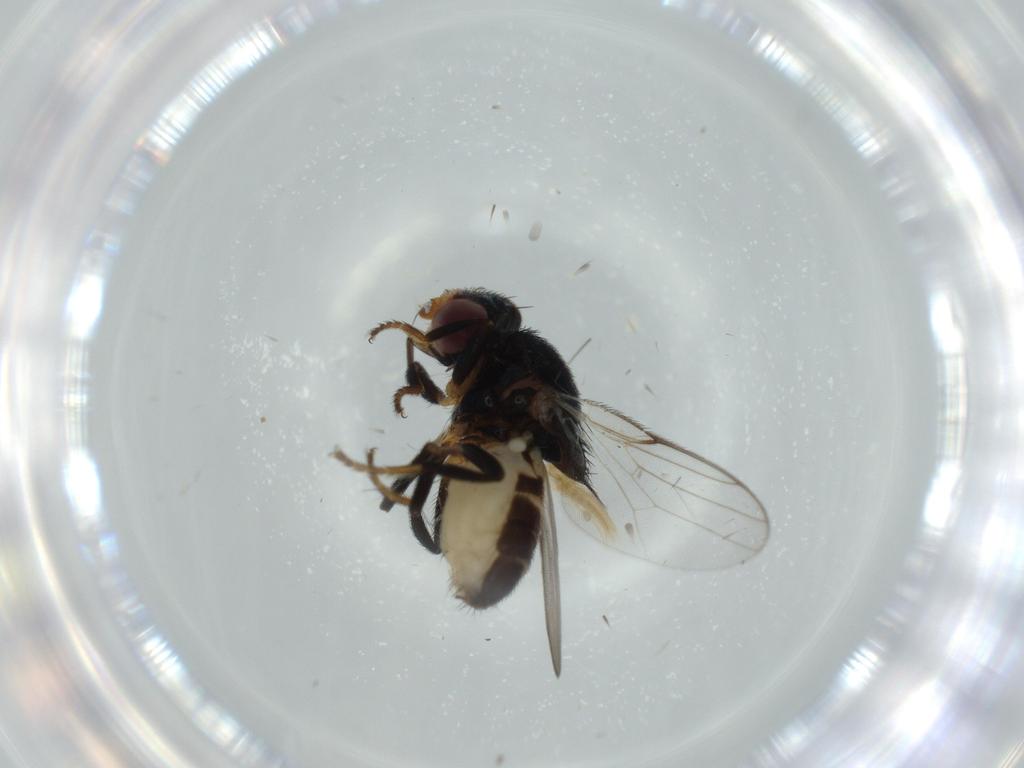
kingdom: Animalia
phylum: Arthropoda
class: Insecta
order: Diptera
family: Chloropidae
